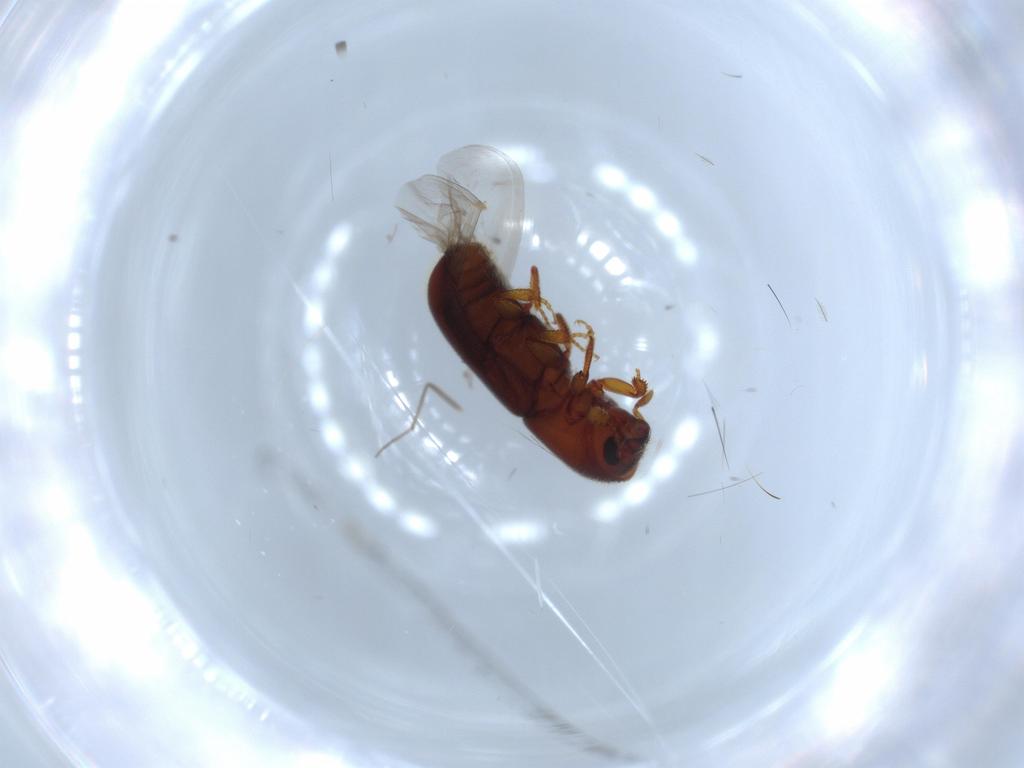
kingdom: Animalia
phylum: Arthropoda
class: Insecta
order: Coleoptera
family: Curculionidae
